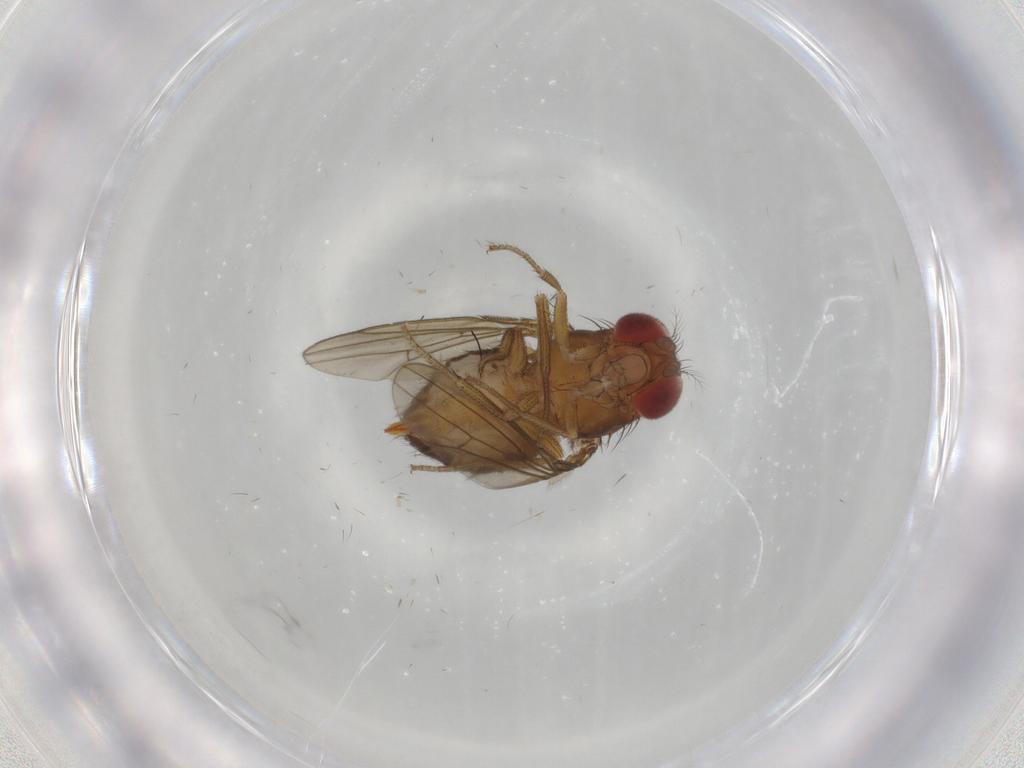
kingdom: Animalia
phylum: Arthropoda
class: Insecta
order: Diptera
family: Drosophilidae
